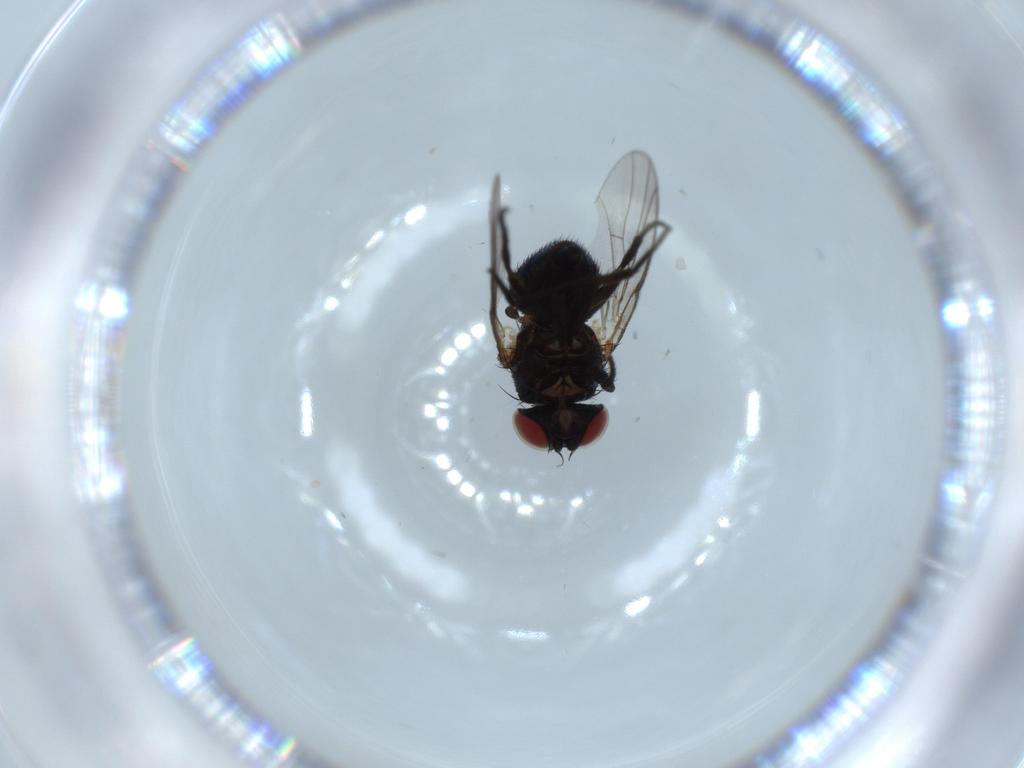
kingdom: Animalia
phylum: Arthropoda
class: Insecta
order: Diptera
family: Agromyzidae
